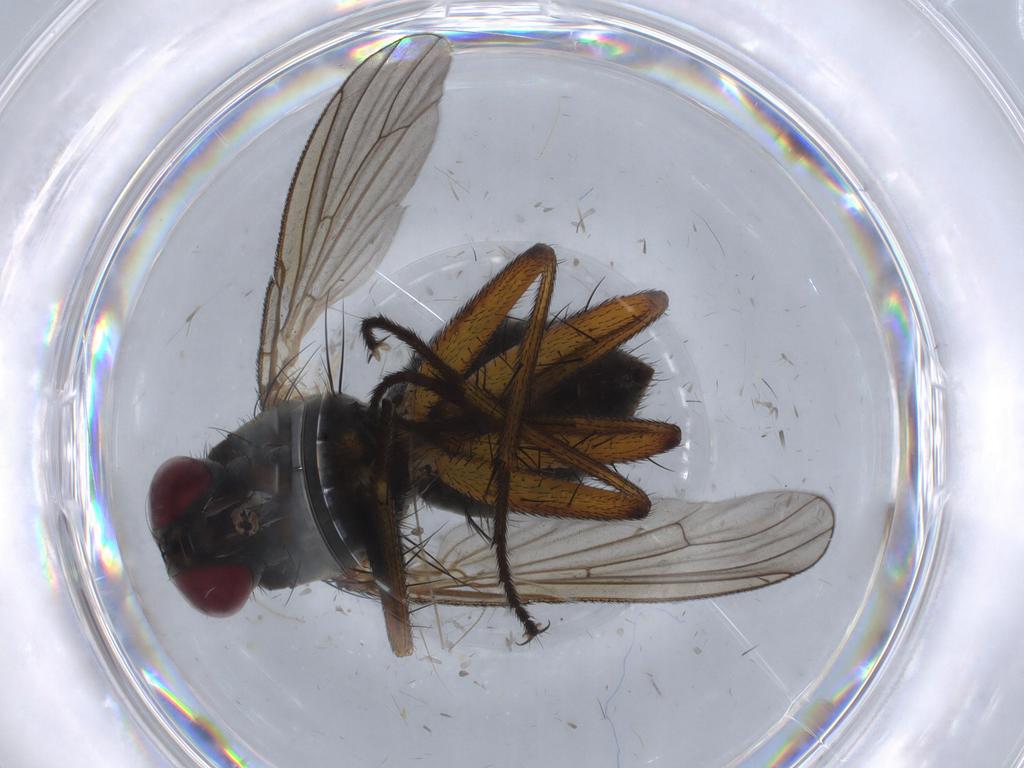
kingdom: Animalia
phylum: Arthropoda
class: Insecta
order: Diptera
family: Muscidae
